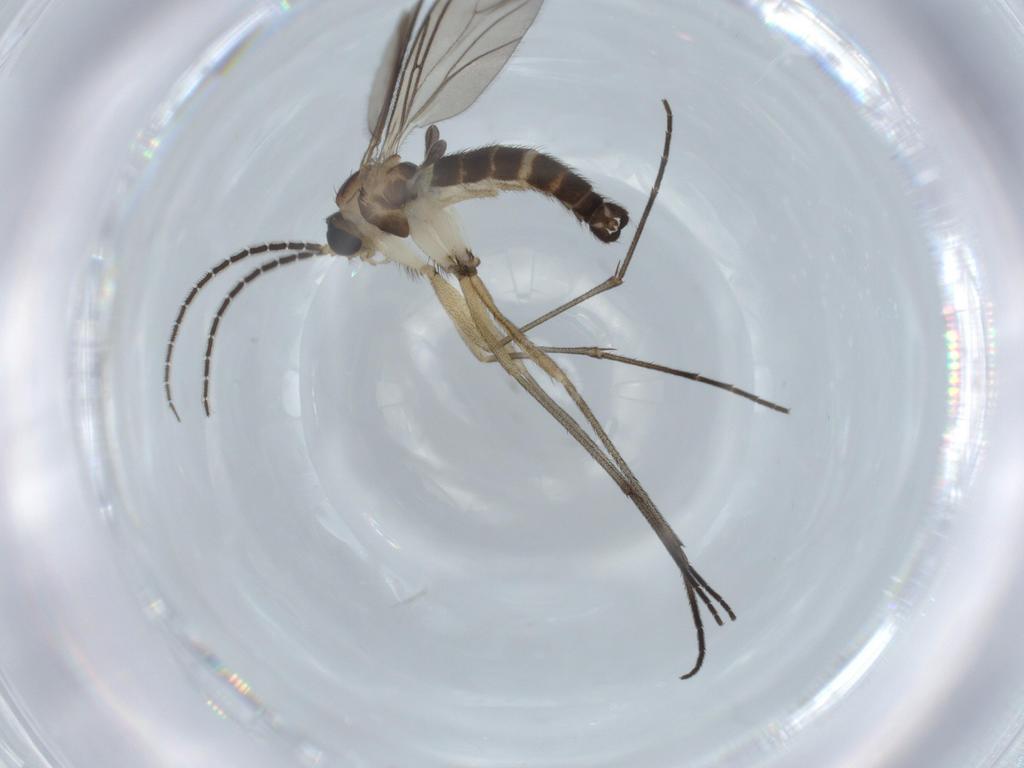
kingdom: Animalia
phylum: Arthropoda
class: Insecta
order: Diptera
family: Sciaridae
